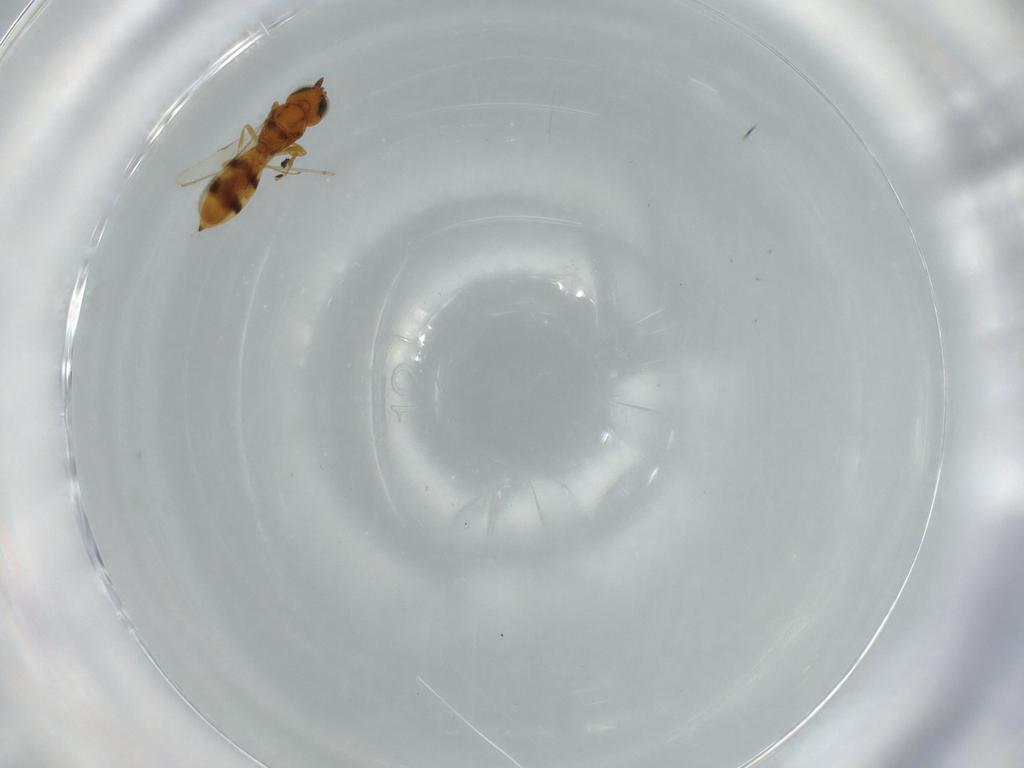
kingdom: Animalia
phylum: Arthropoda
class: Insecta
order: Hymenoptera
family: Scelionidae
